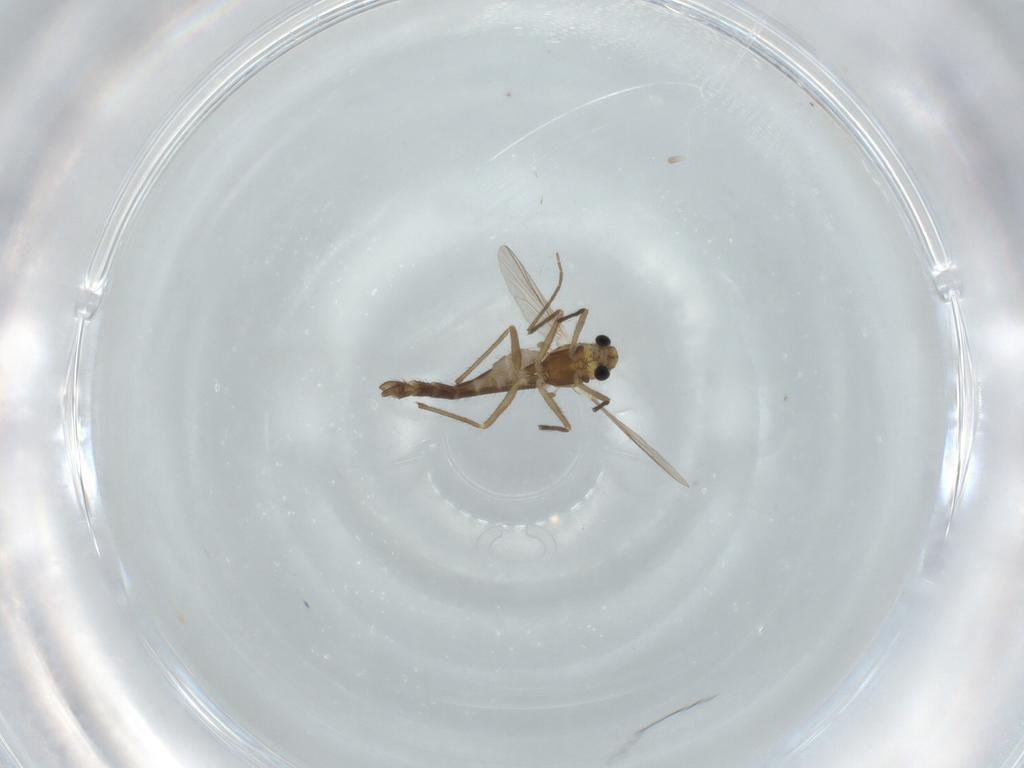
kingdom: Animalia
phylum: Arthropoda
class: Insecta
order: Diptera
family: Chironomidae
